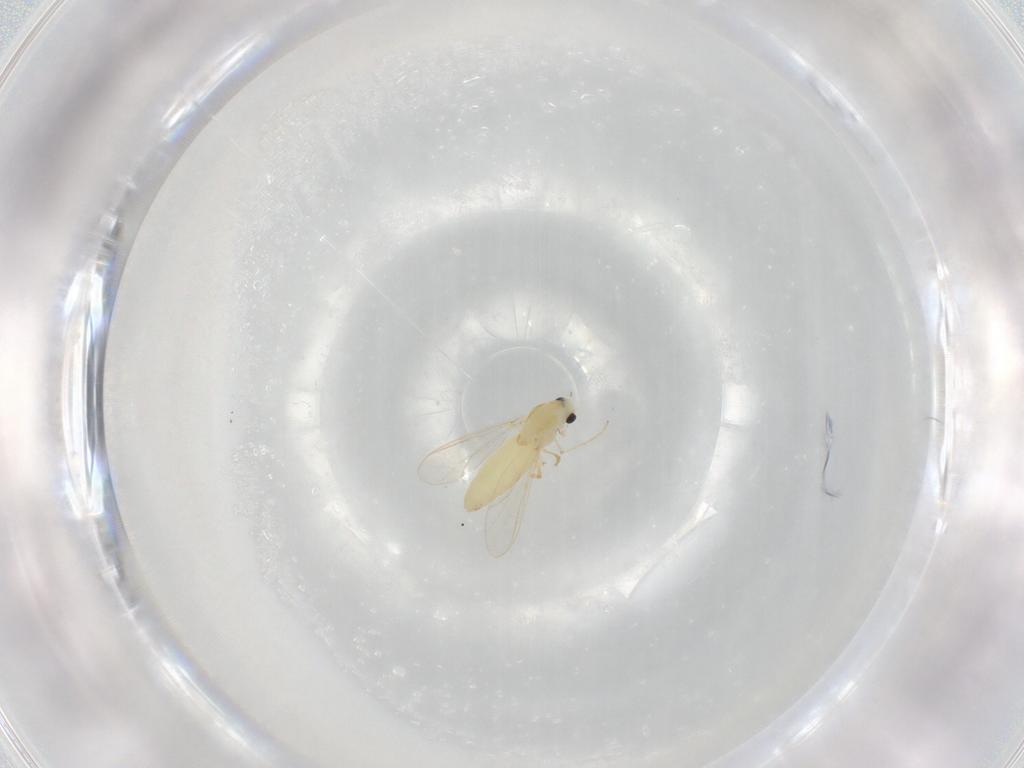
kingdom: Animalia
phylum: Arthropoda
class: Insecta
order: Diptera
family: Chironomidae
